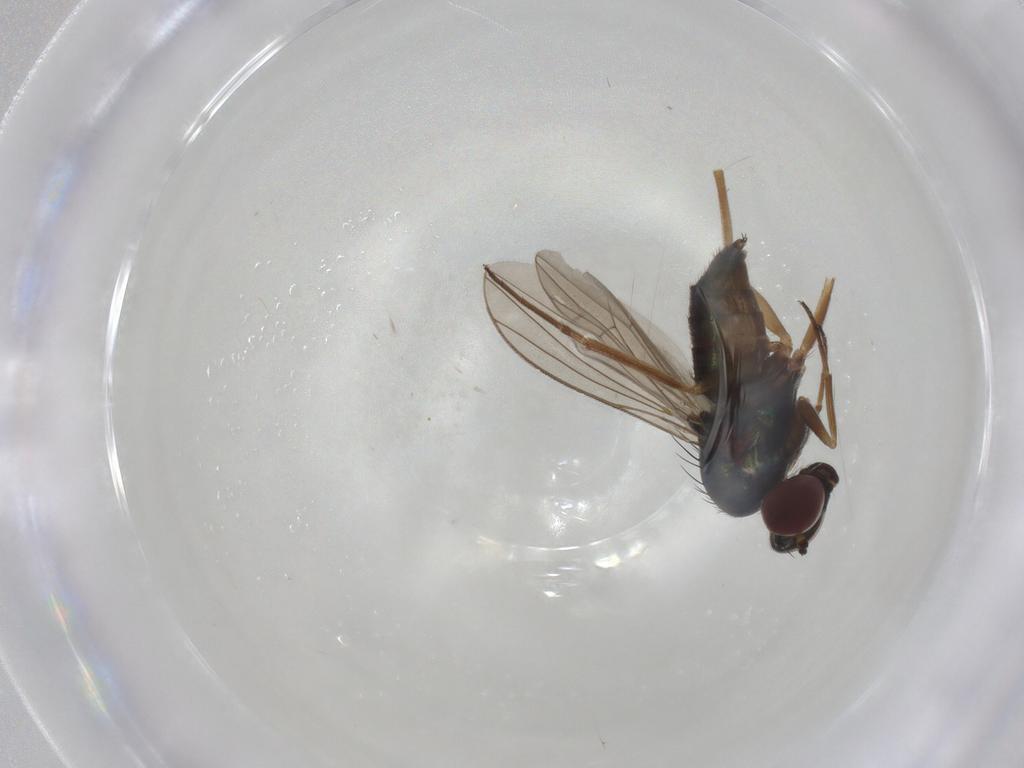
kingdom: Animalia
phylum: Arthropoda
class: Insecta
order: Diptera
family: Dolichopodidae
